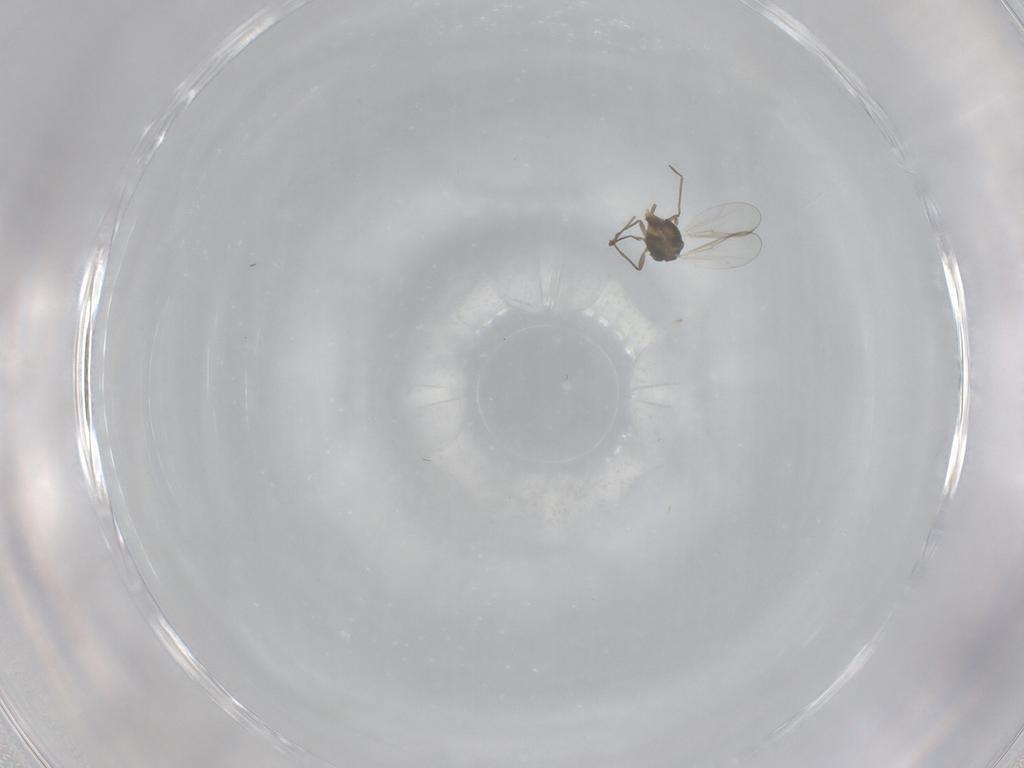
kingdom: Animalia
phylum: Arthropoda
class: Insecta
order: Diptera
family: Chironomidae
